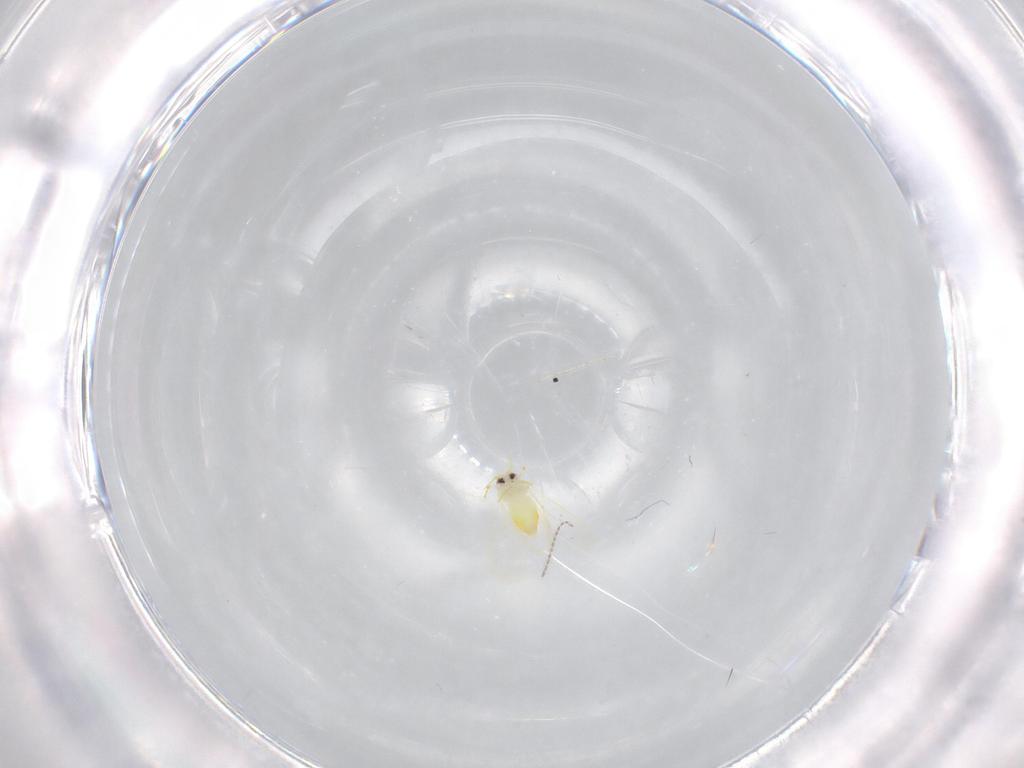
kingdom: Animalia
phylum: Arthropoda
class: Insecta
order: Hemiptera
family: Aleyrodidae
